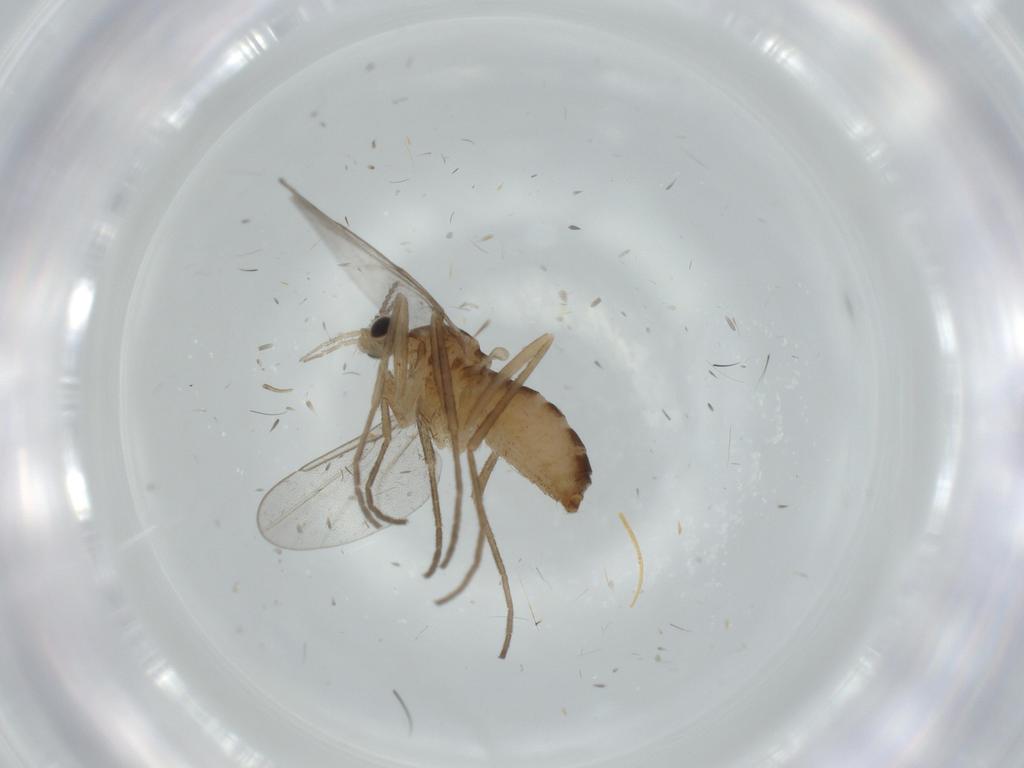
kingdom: Animalia
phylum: Arthropoda
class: Insecta
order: Diptera
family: Cecidomyiidae
